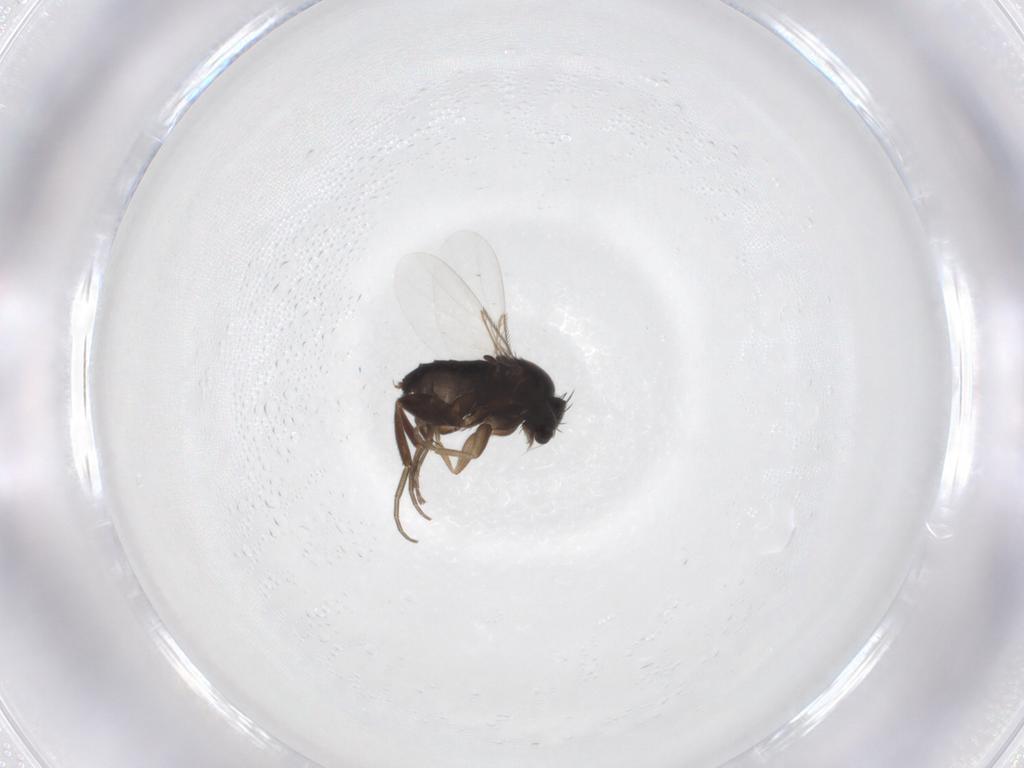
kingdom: Animalia
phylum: Arthropoda
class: Insecta
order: Diptera
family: Phoridae
